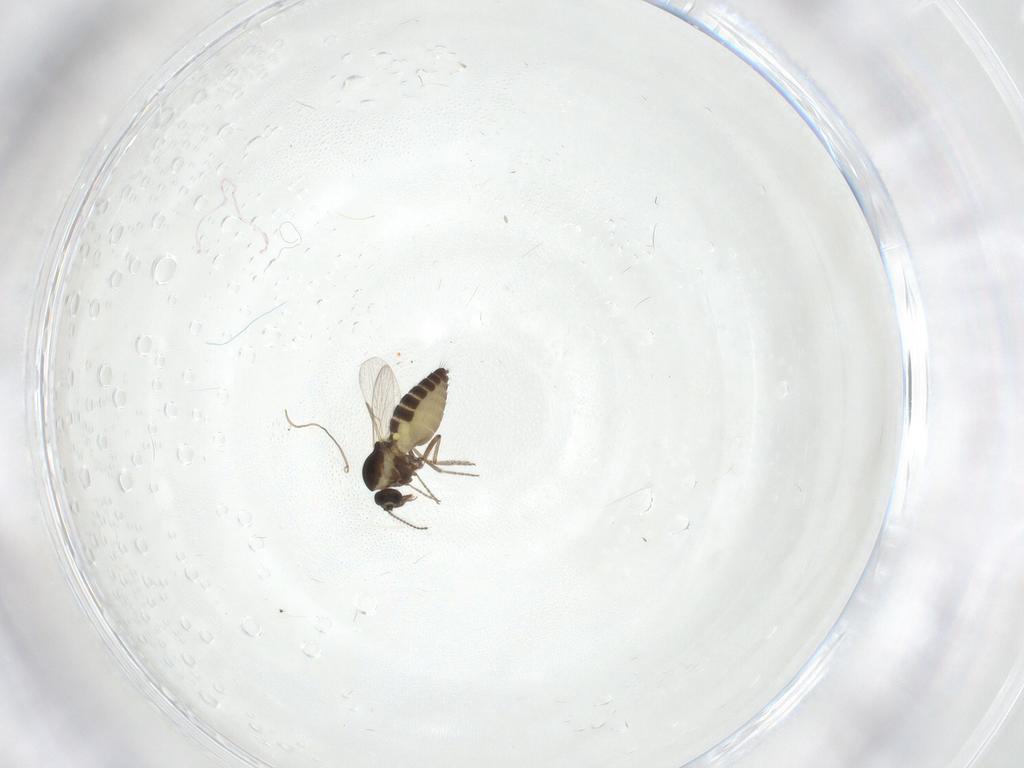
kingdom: Animalia
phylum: Arthropoda
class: Insecta
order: Diptera
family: Ceratopogonidae
